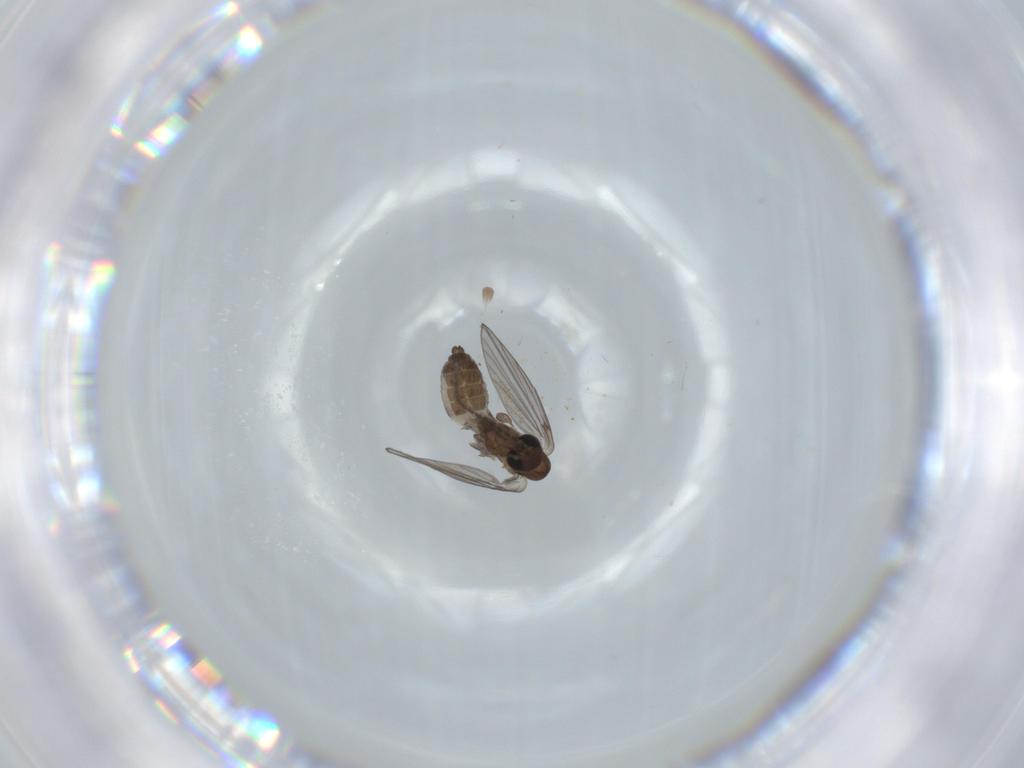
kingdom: Animalia
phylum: Arthropoda
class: Insecta
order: Diptera
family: Psychodidae
